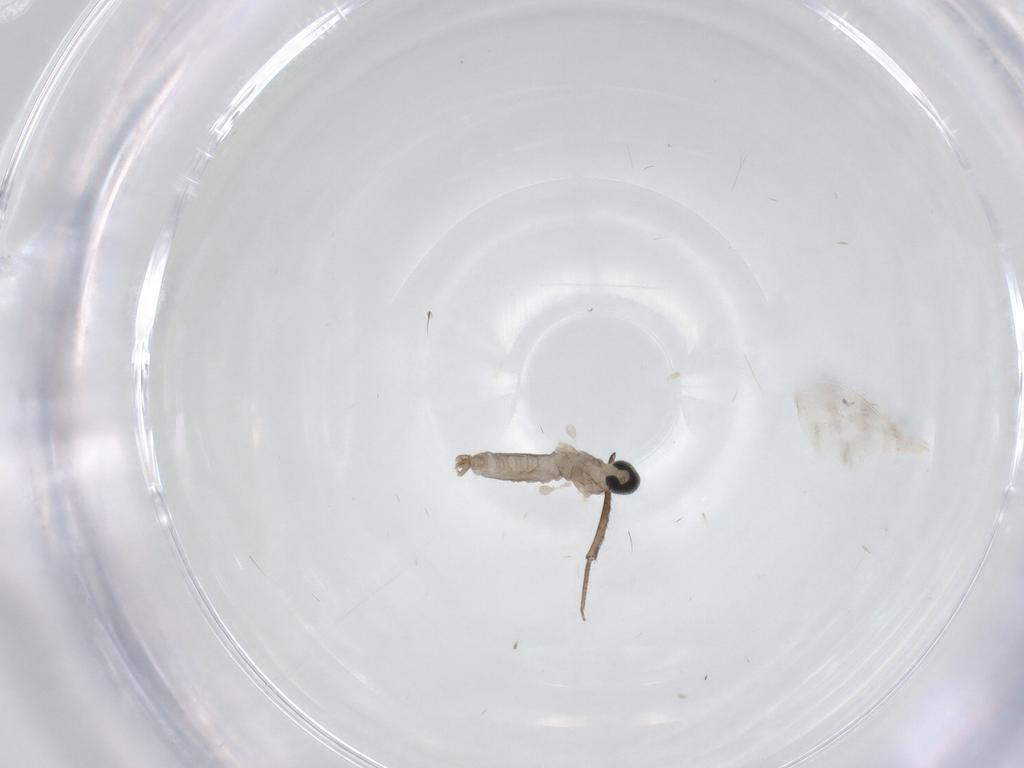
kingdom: Animalia
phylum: Arthropoda
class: Insecta
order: Diptera
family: Cecidomyiidae
